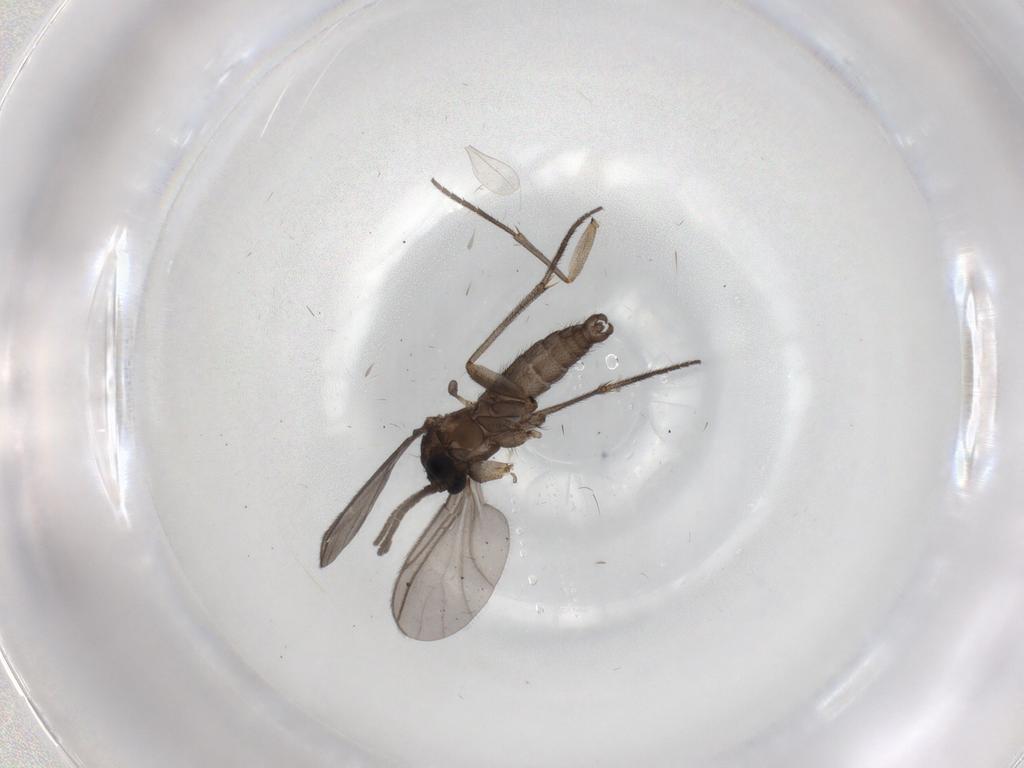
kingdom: Animalia
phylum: Arthropoda
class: Insecta
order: Diptera
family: Sciaridae
